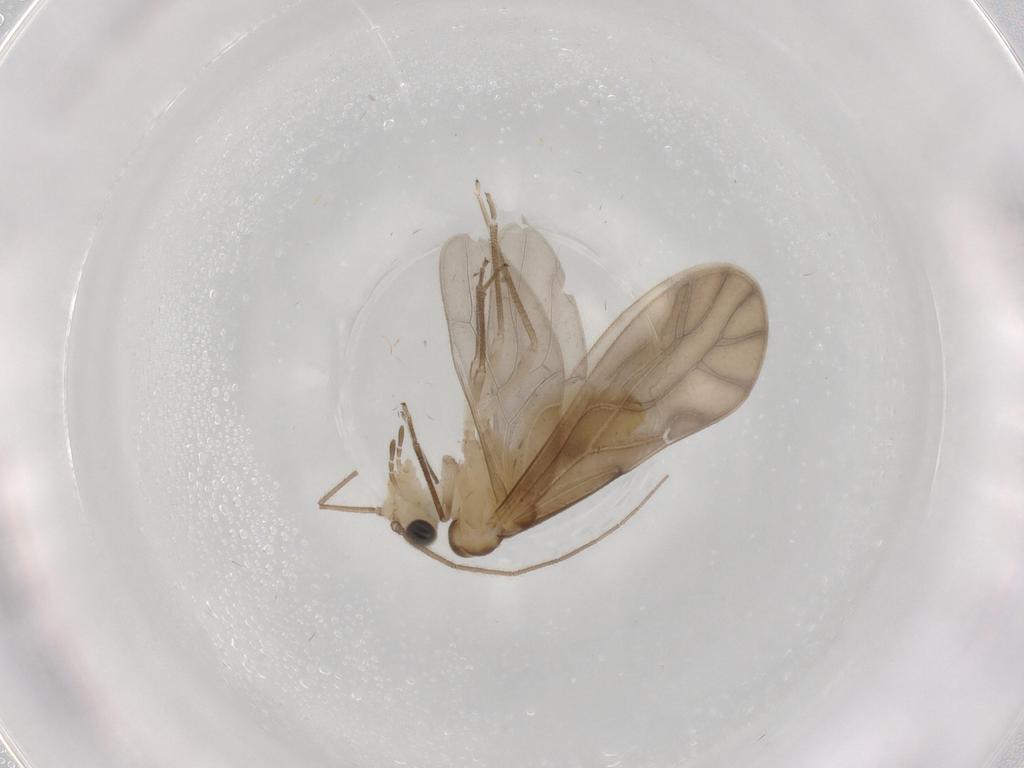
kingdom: Animalia
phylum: Arthropoda
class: Insecta
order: Psocodea
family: Caeciliusidae
